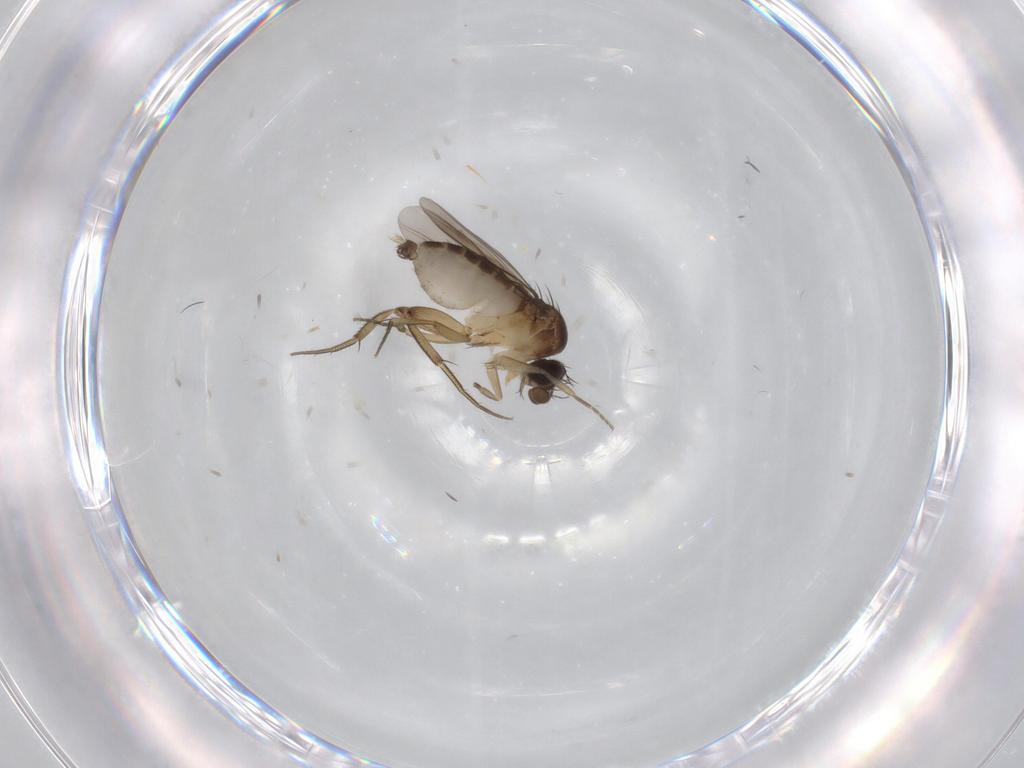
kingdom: Animalia
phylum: Arthropoda
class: Insecta
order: Diptera
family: Phoridae
